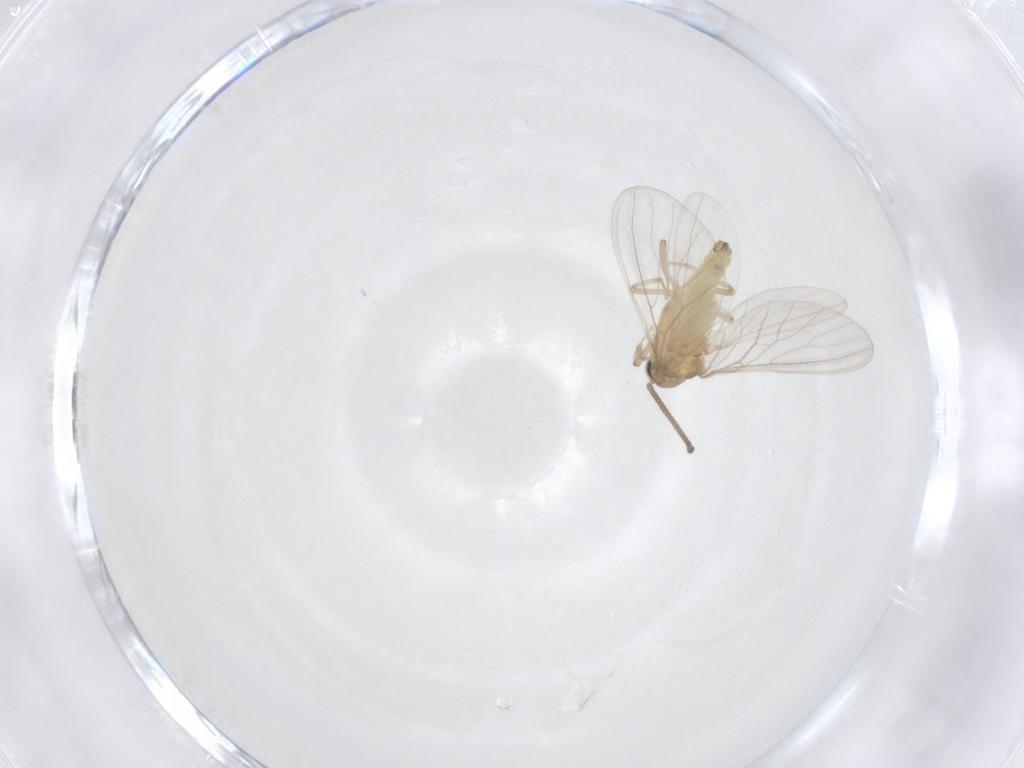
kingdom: Animalia
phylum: Arthropoda
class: Insecta
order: Neuroptera
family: Coniopterygidae
